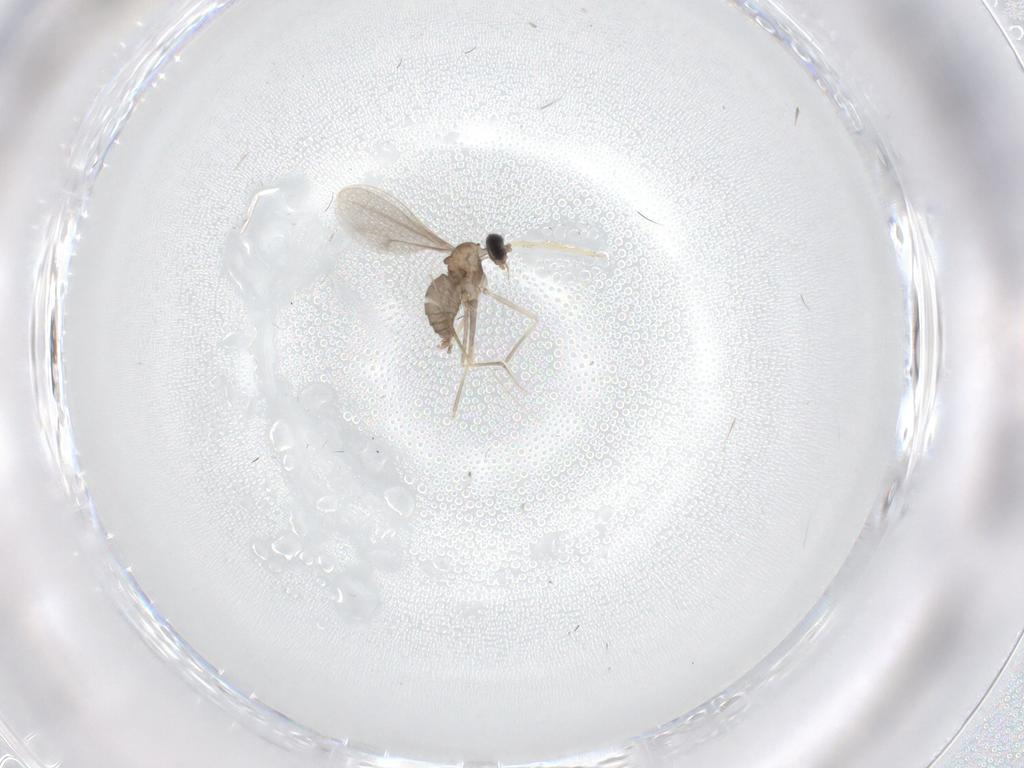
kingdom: Animalia
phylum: Arthropoda
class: Insecta
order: Diptera
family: Cecidomyiidae
